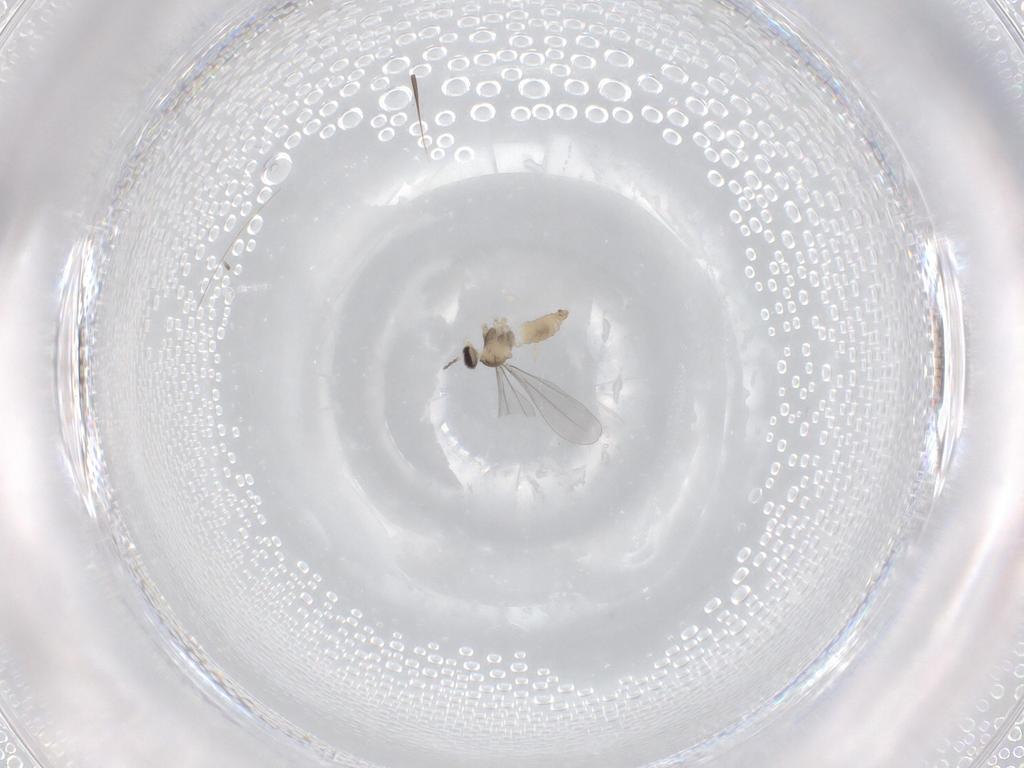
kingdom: Animalia
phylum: Arthropoda
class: Insecta
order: Diptera
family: Cecidomyiidae
